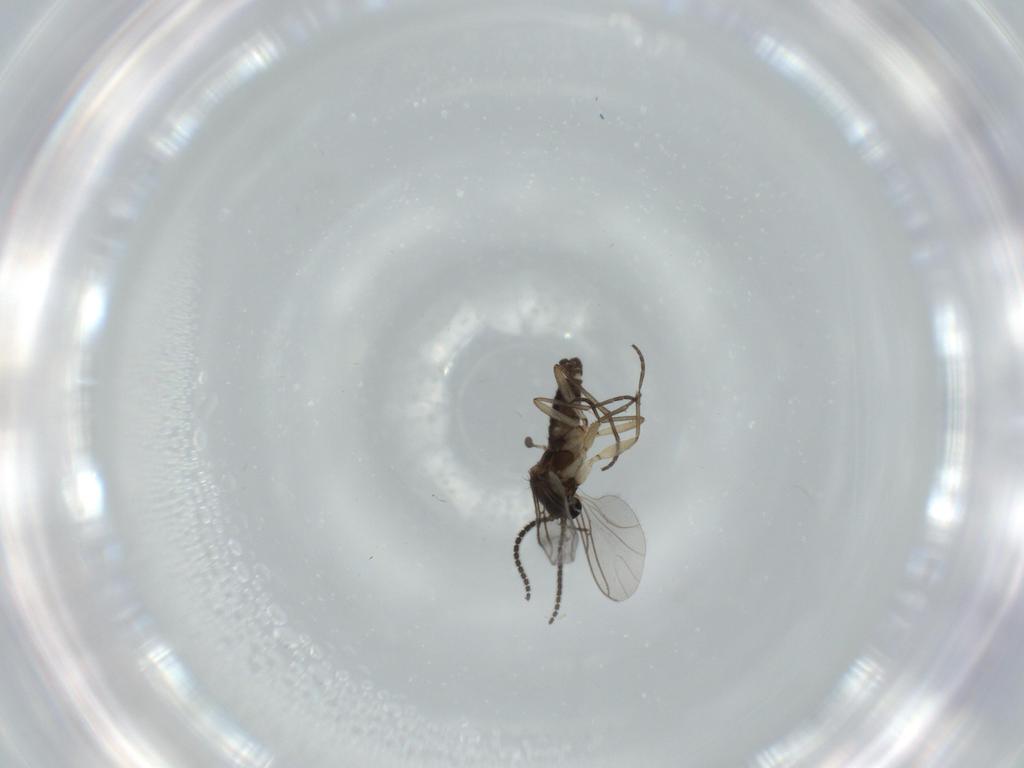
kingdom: Animalia
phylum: Arthropoda
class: Insecta
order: Diptera
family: Sciaridae
